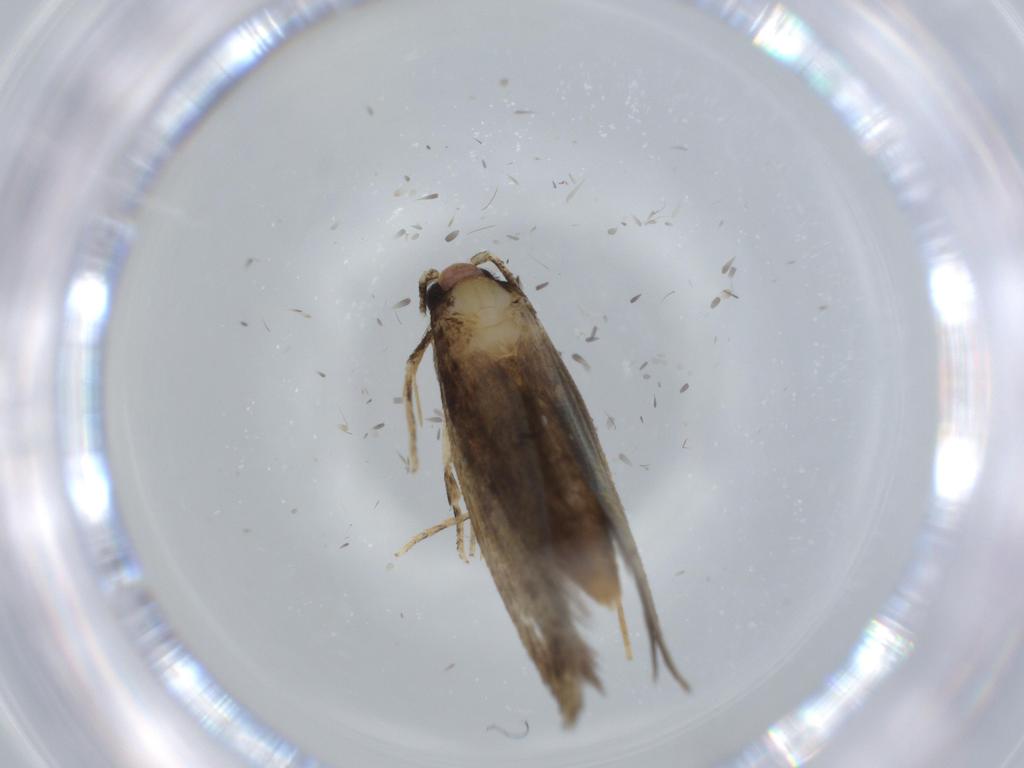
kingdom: Animalia
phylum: Arthropoda
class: Insecta
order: Lepidoptera
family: Tineidae
